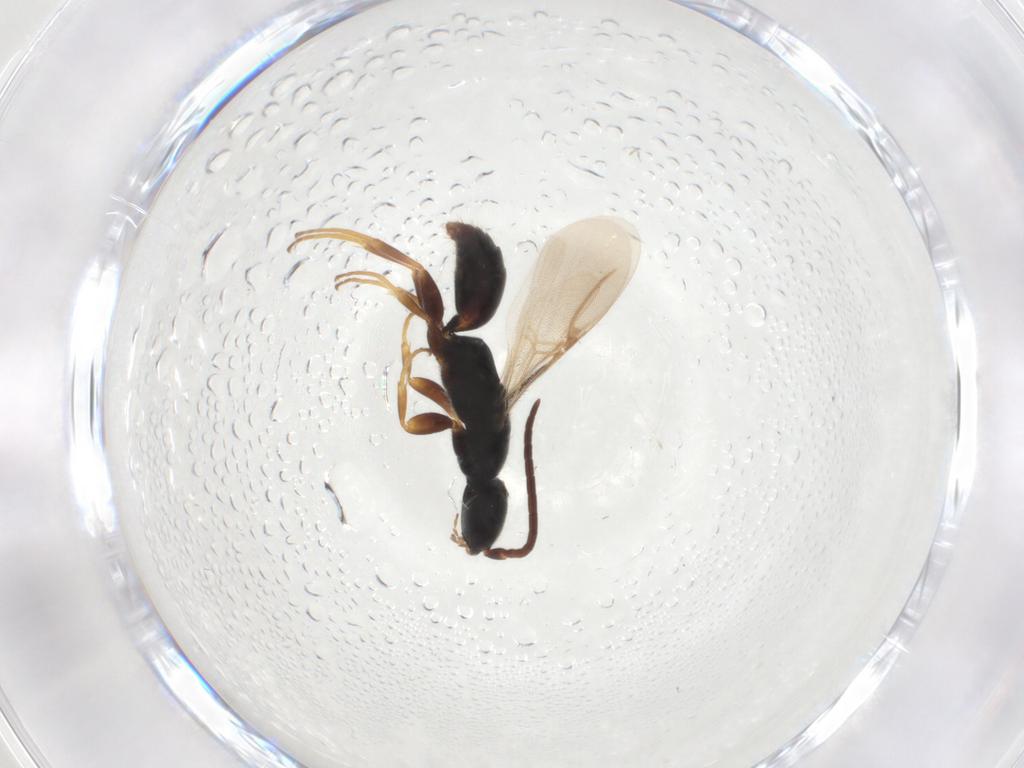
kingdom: Animalia
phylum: Arthropoda
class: Insecta
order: Hymenoptera
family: Bethylidae
